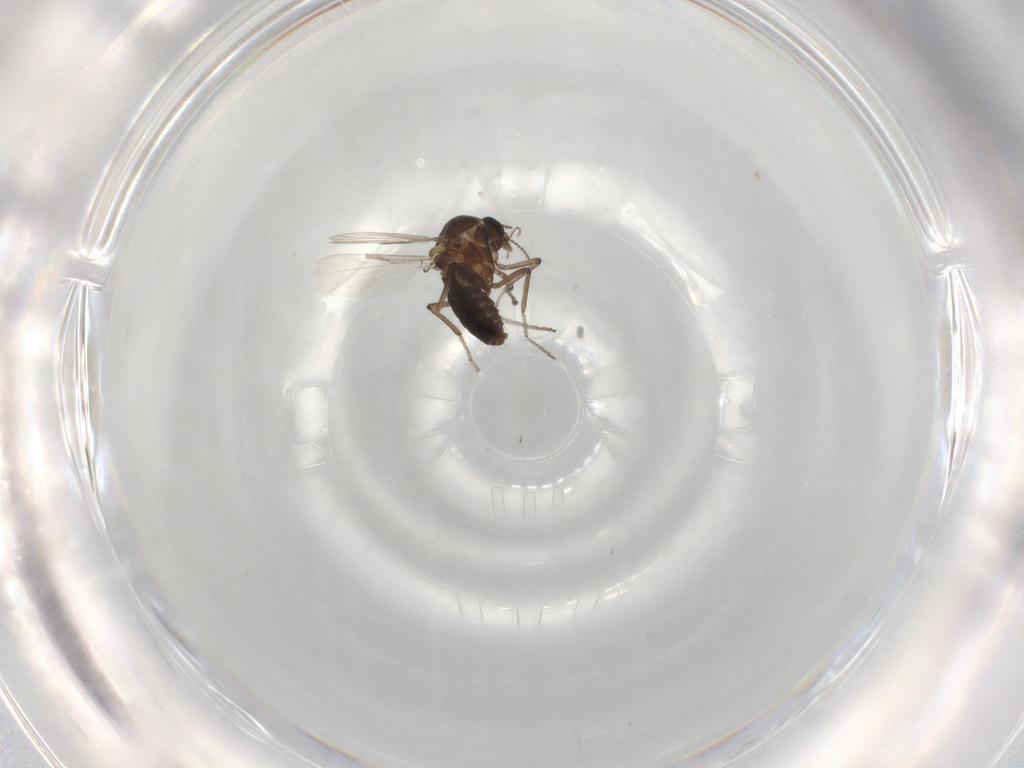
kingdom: Animalia
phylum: Arthropoda
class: Insecta
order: Diptera
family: Ceratopogonidae
